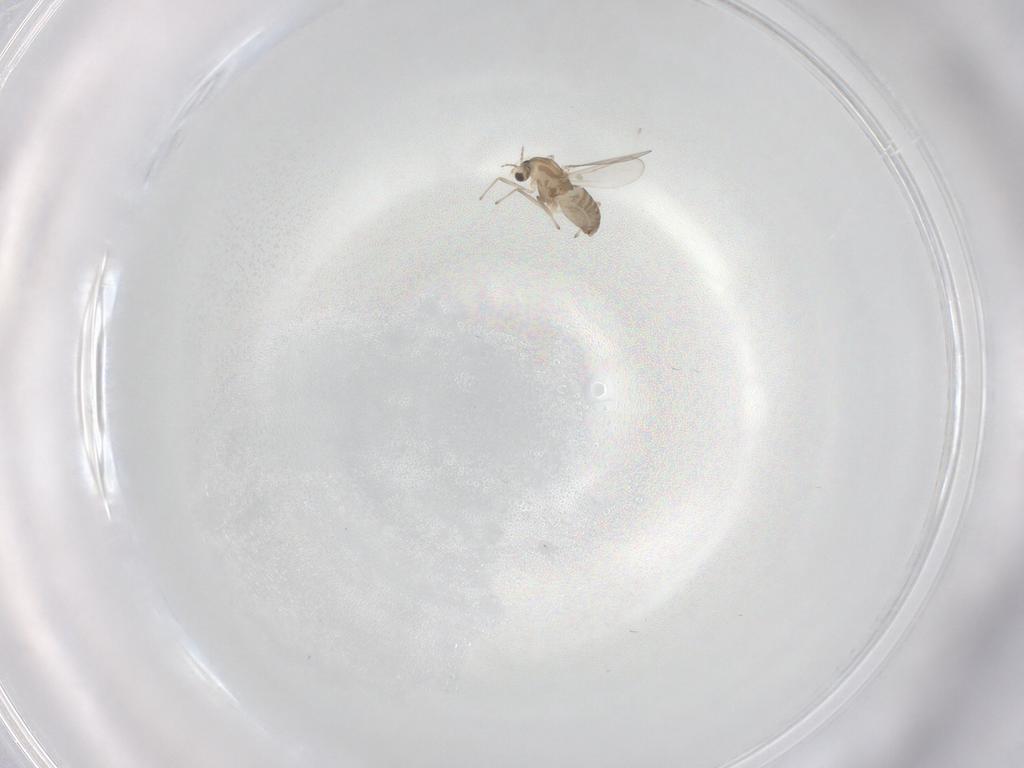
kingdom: Animalia
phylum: Arthropoda
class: Insecta
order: Diptera
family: Chironomidae
